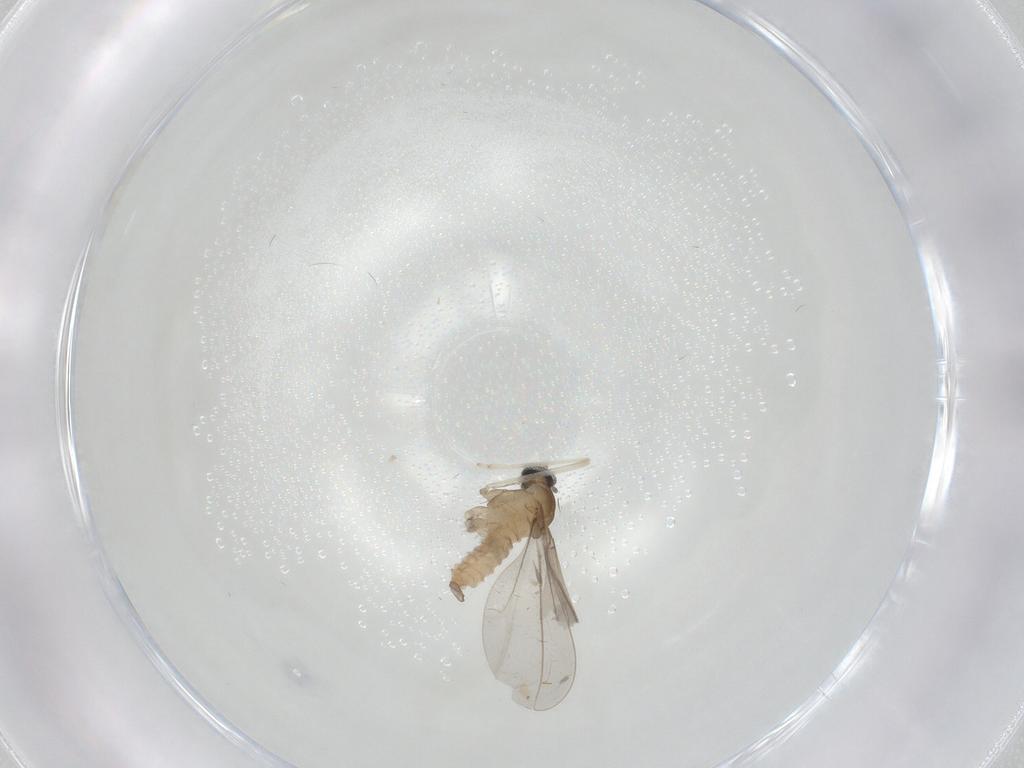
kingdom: Animalia
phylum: Arthropoda
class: Insecta
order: Diptera
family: Cecidomyiidae
